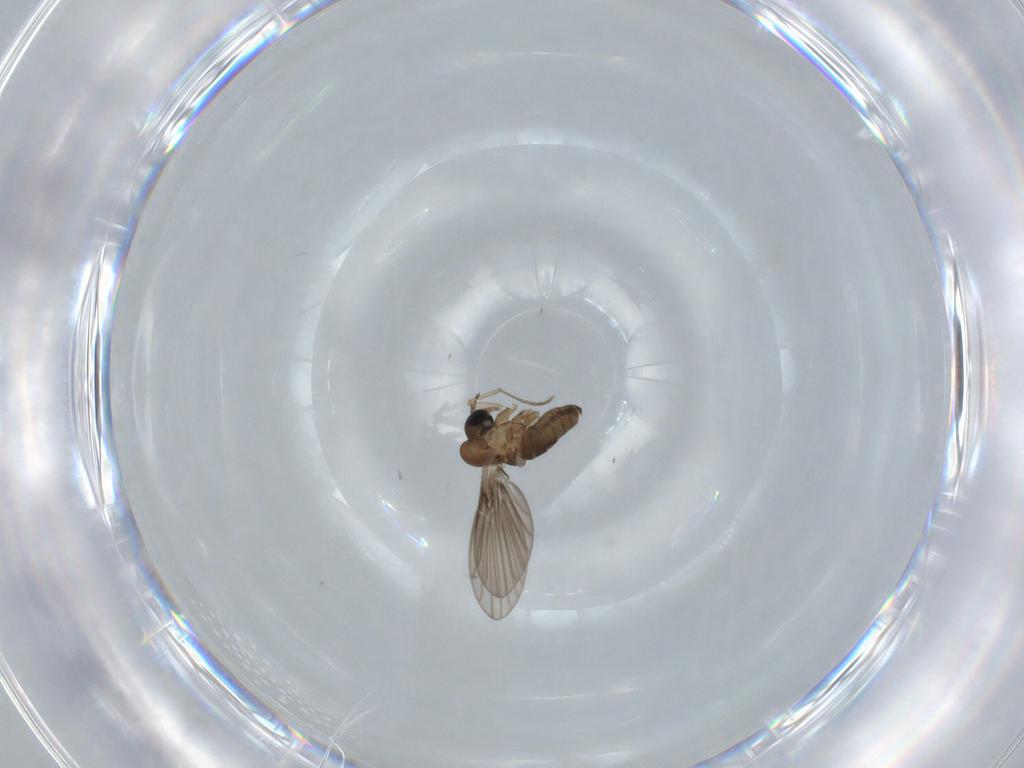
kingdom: Animalia
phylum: Arthropoda
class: Insecta
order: Diptera
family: Psychodidae
